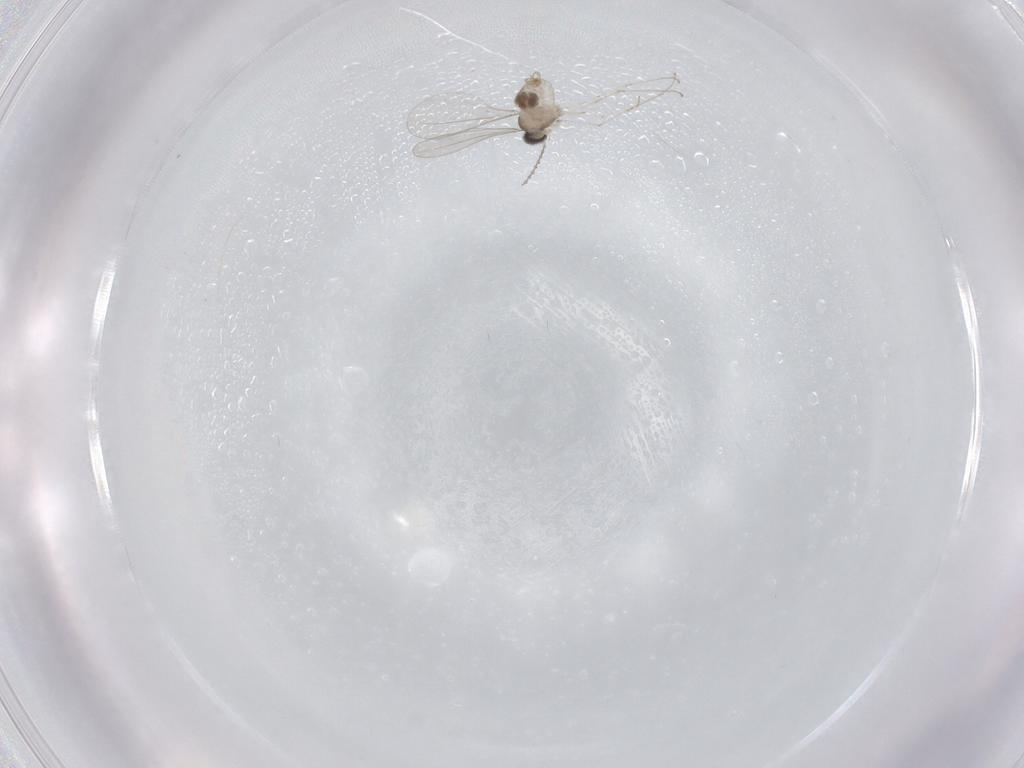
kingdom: Animalia
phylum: Arthropoda
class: Insecta
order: Diptera
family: Cecidomyiidae
